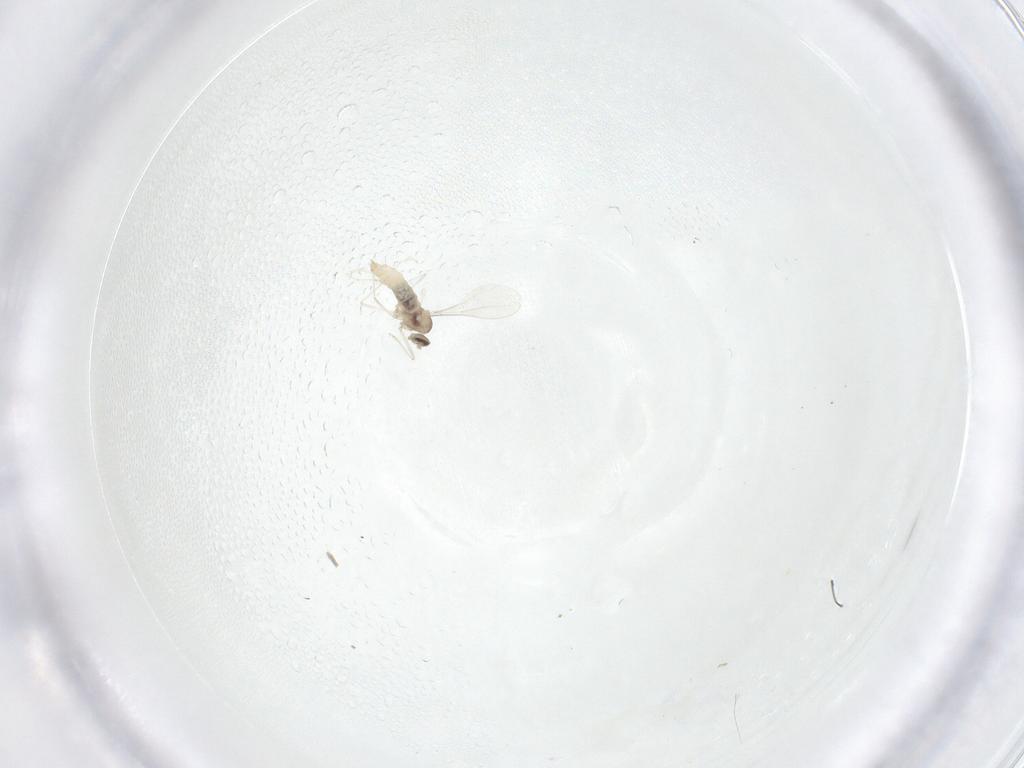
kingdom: Animalia
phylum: Arthropoda
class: Insecta
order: Diptera
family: Cecidomyiidae
